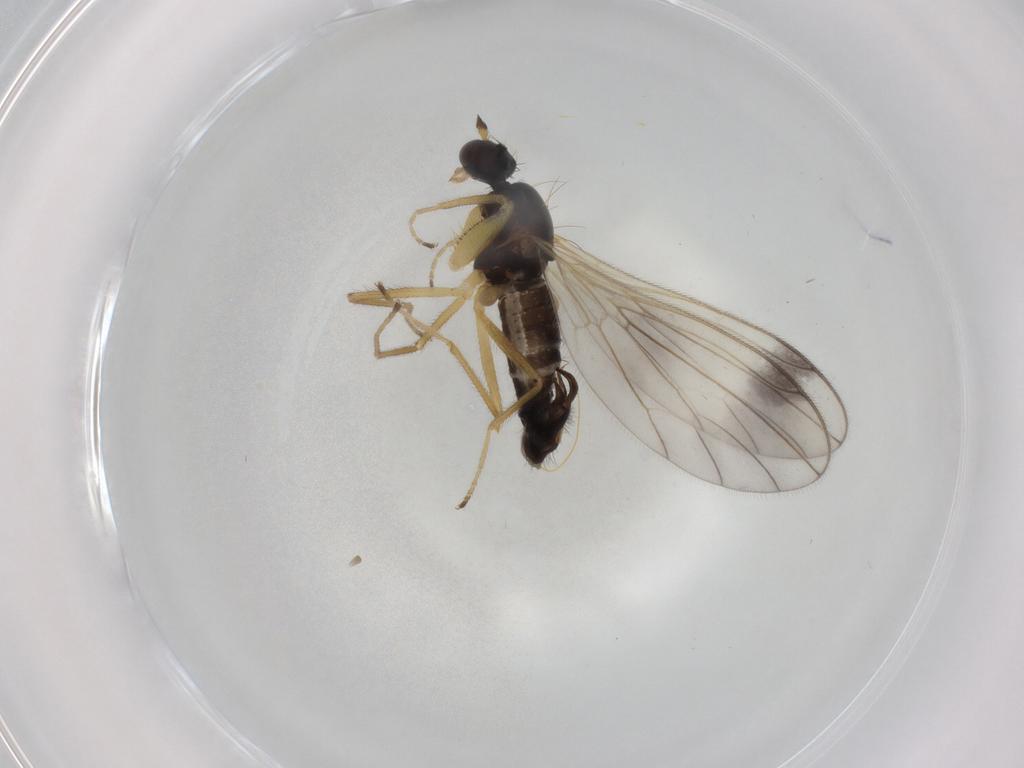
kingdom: Animalia
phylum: Arthropoda
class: Insecta
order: Diptera
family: Empididae
